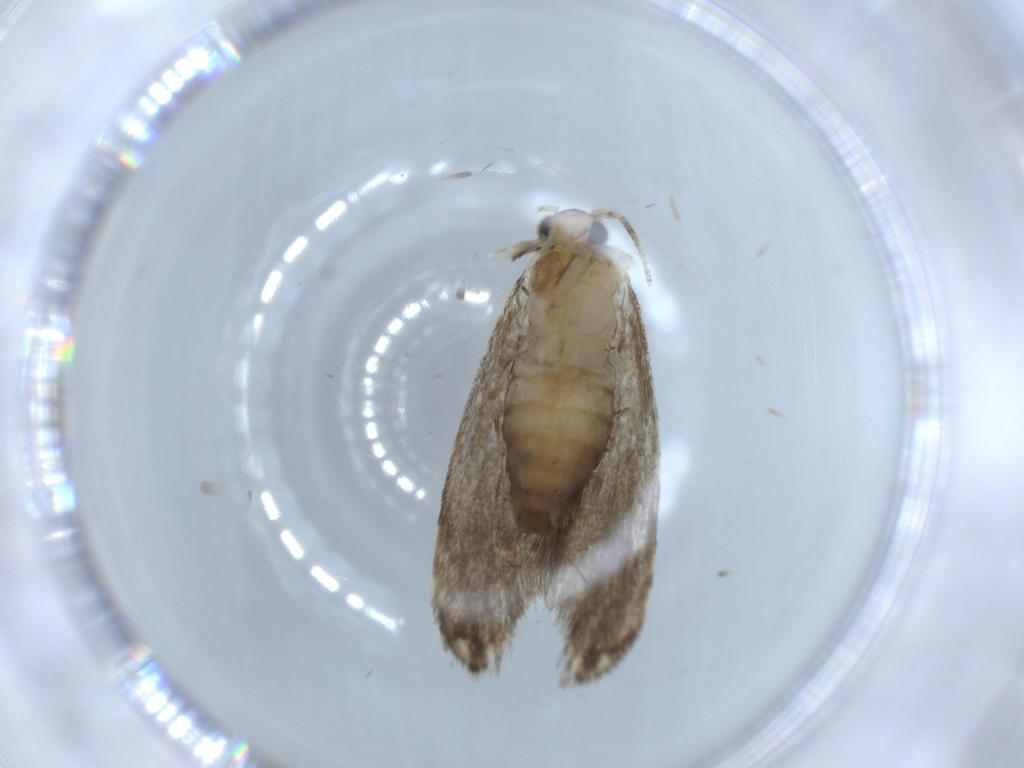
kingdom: Animalia
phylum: Arthropoda
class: Insecta
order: Lepidoptera
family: Tineidae
